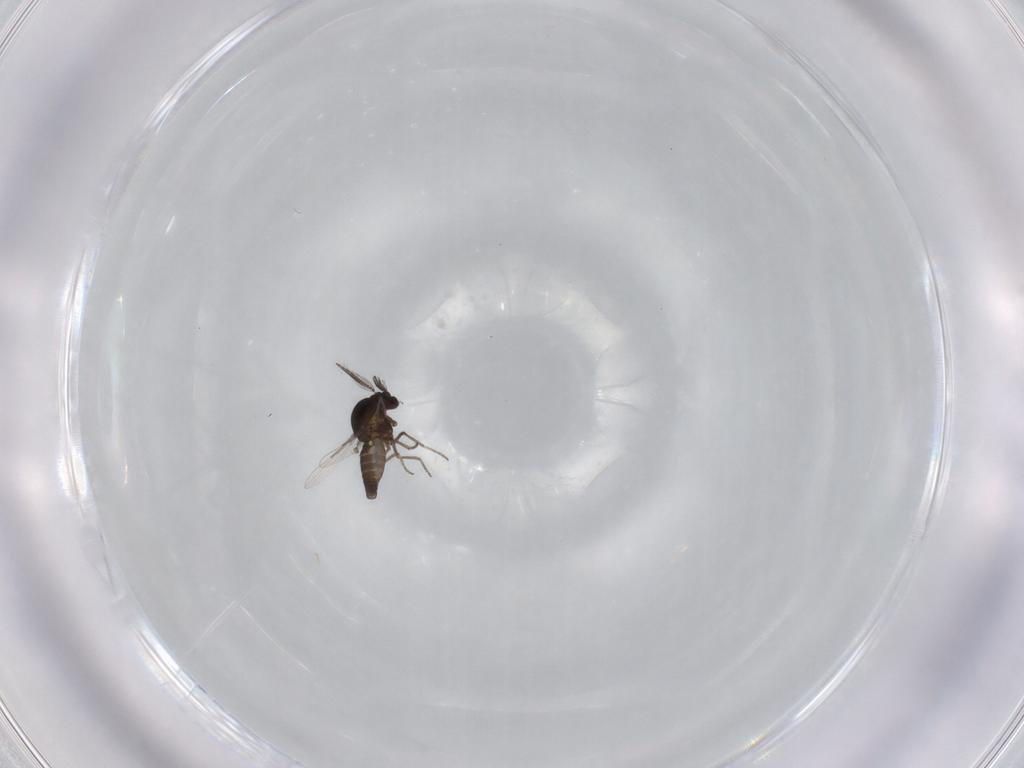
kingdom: Animalia
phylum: Arthropoda
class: Insecta
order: Diptera
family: Ceratopogonidae
